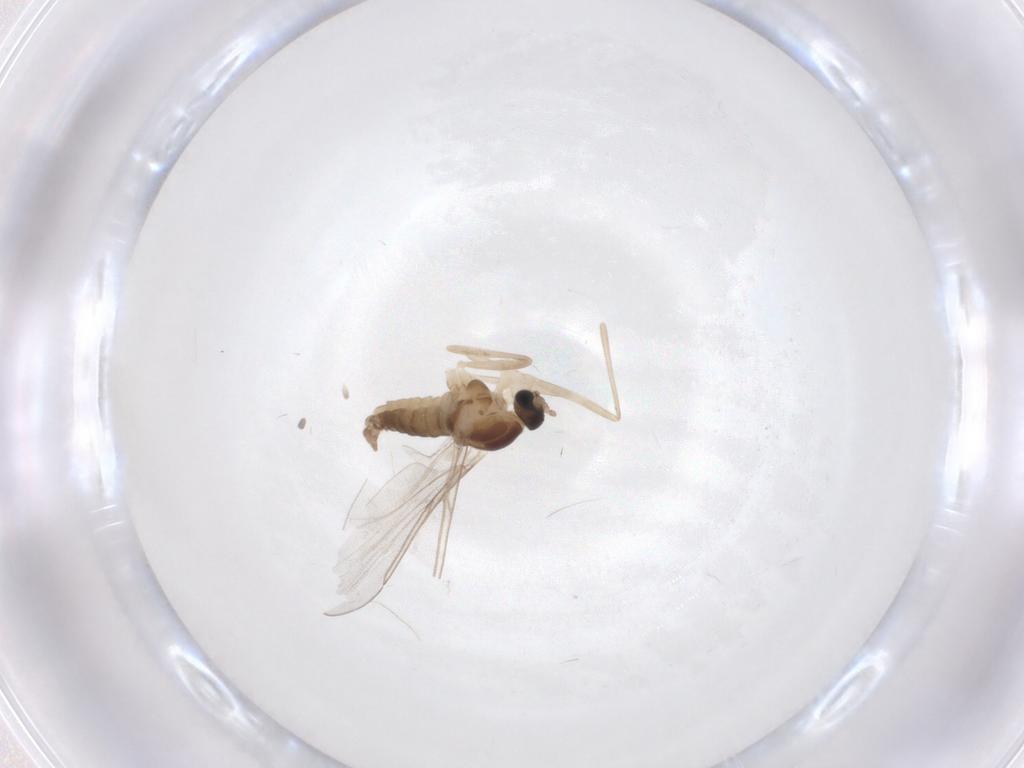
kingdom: Animalia
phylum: Arthropoda
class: Insecta
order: Diptera
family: Cecidomyiidae
